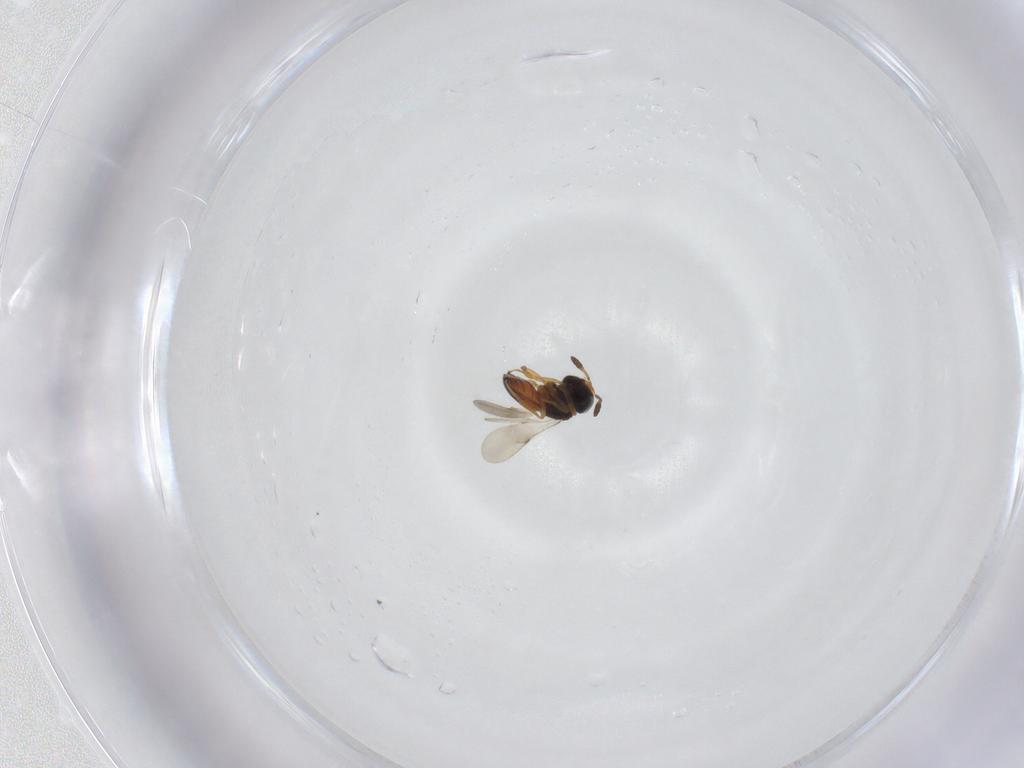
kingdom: Animalia
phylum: Arthropoda
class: Insecta
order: Hymenoptera
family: Scelionidae
